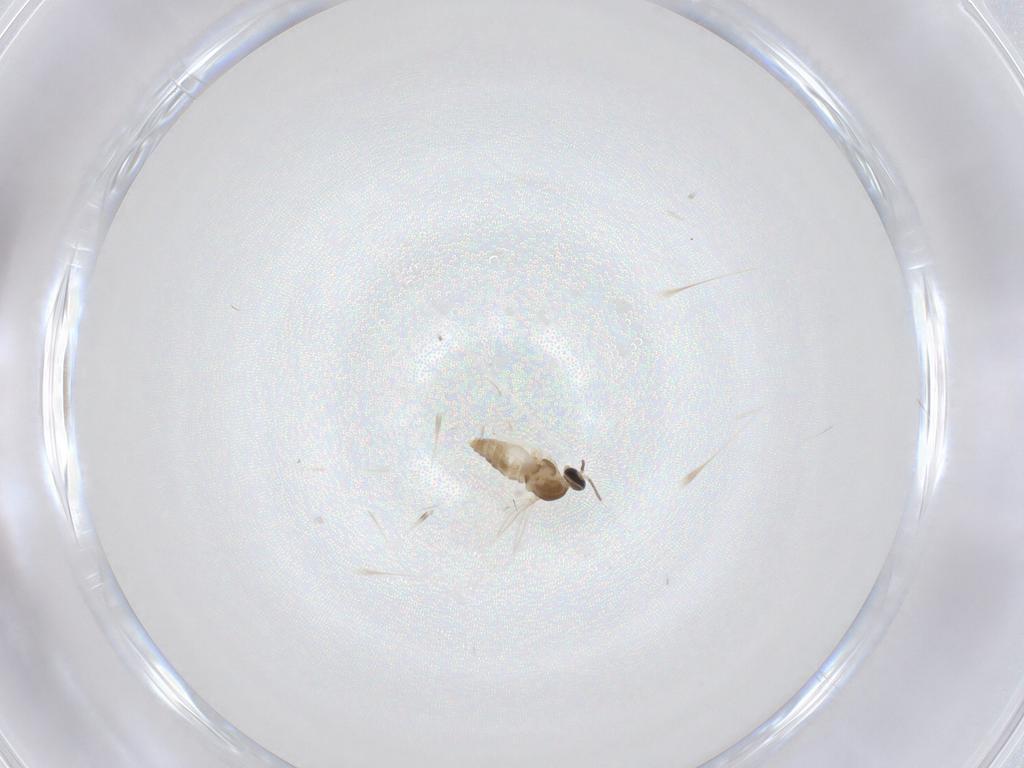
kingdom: Animalia
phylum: Arthropoda
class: Insecta
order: Diptera
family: Cecidomyiidae
